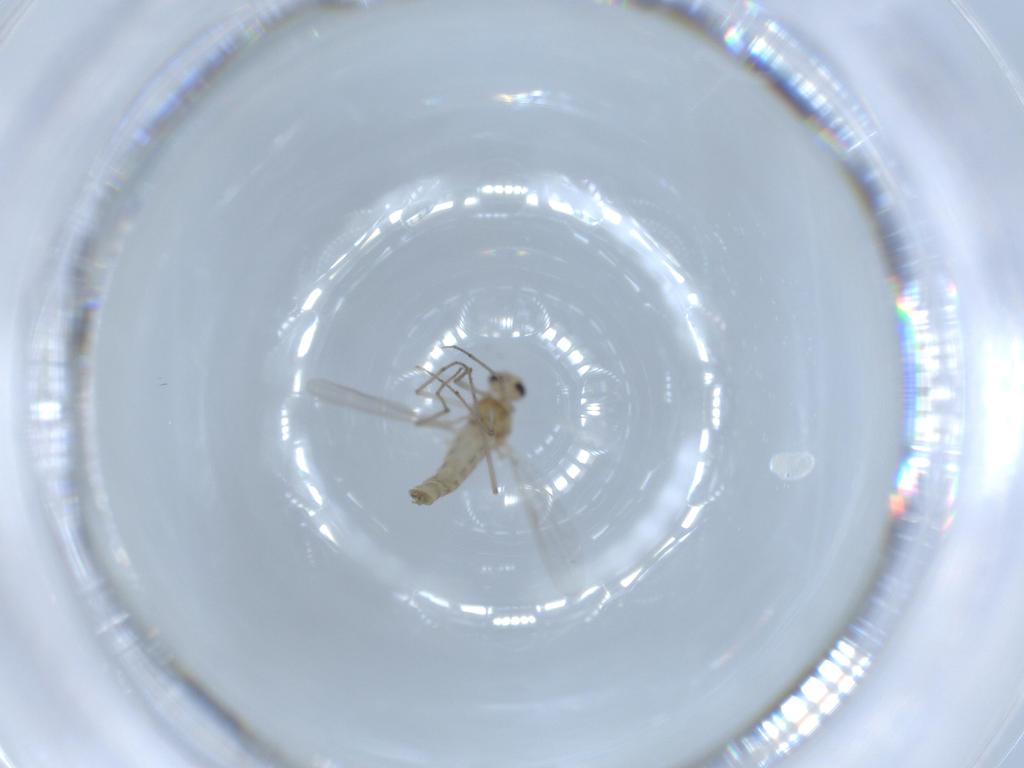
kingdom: Animalia
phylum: Arthropoda
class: Insecta
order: Diptera
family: Chironomidae
